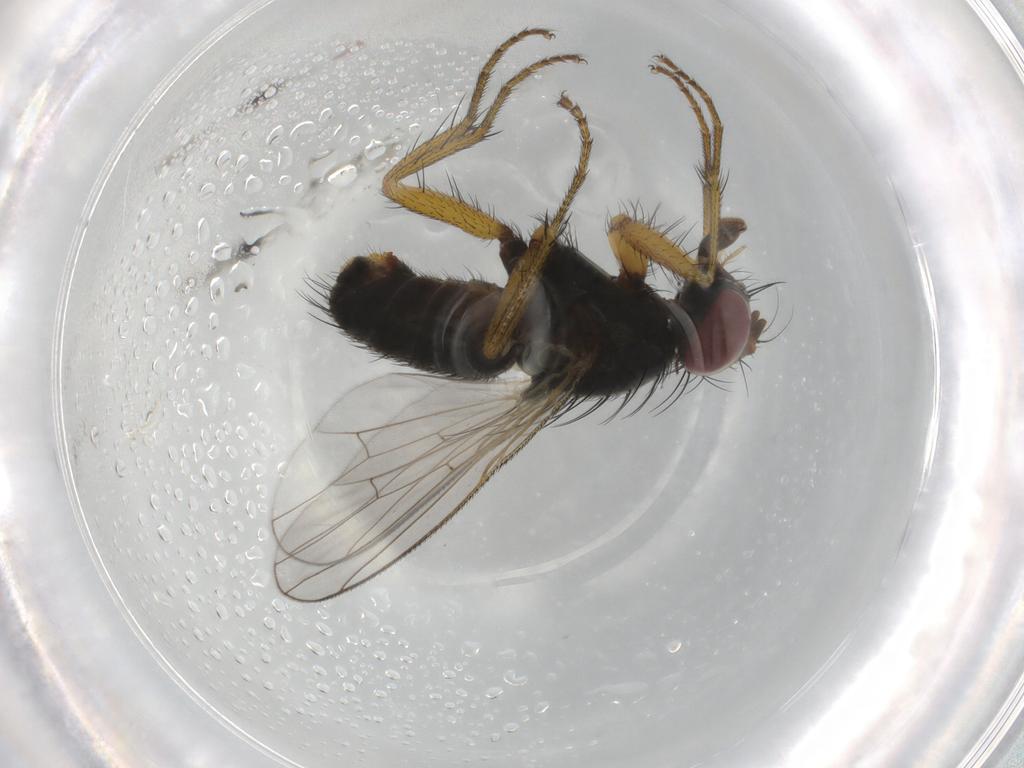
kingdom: Animalia
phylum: Arthropoda
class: Insecta
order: Diptera
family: Muscidae
